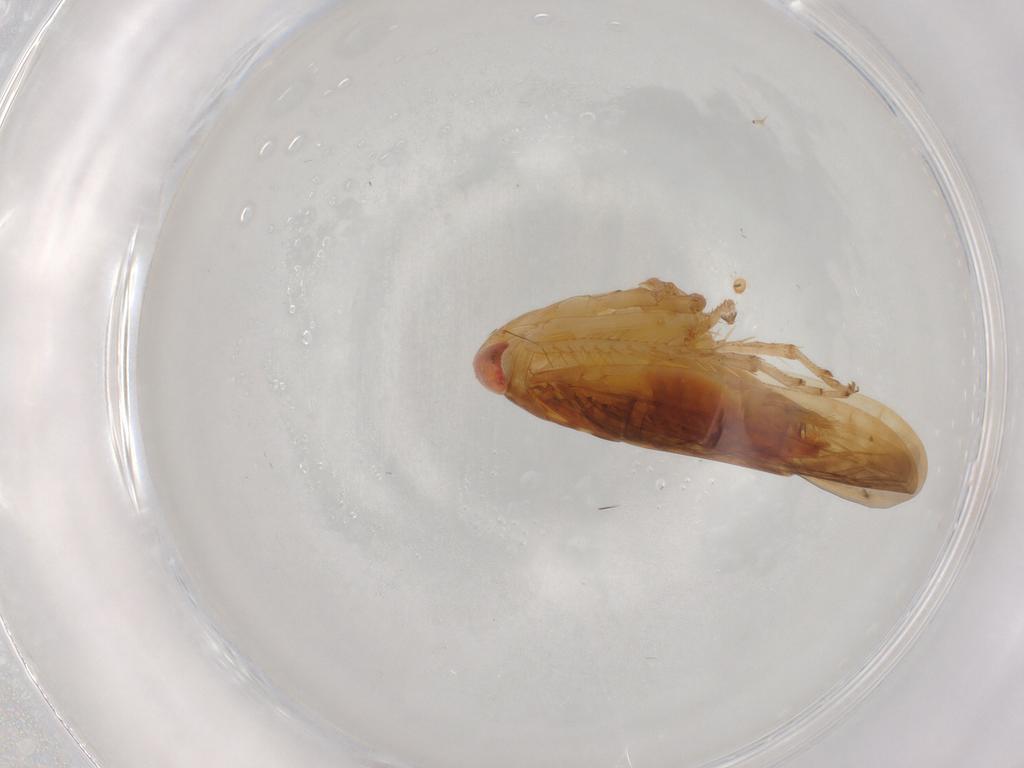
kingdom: Animalia
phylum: Arthropoda
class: Insecta
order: Hemiptera
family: Cicadellidae
